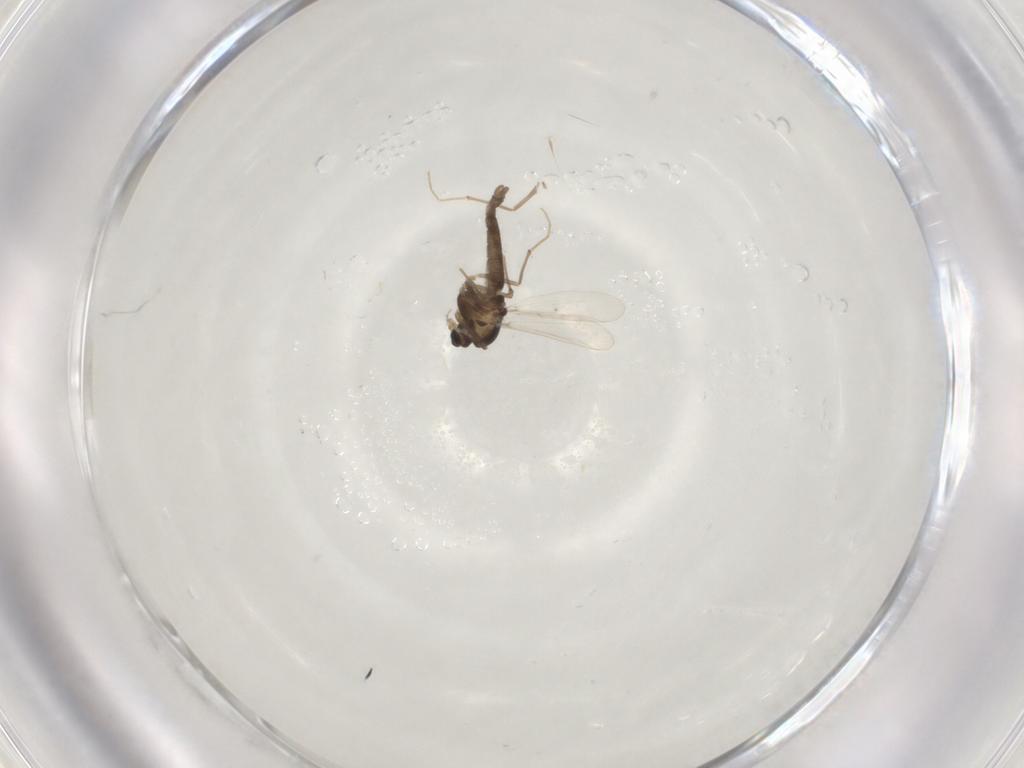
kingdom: Animalia
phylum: Arthropoda
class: Insecta
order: Diptera
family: Chironomidae
